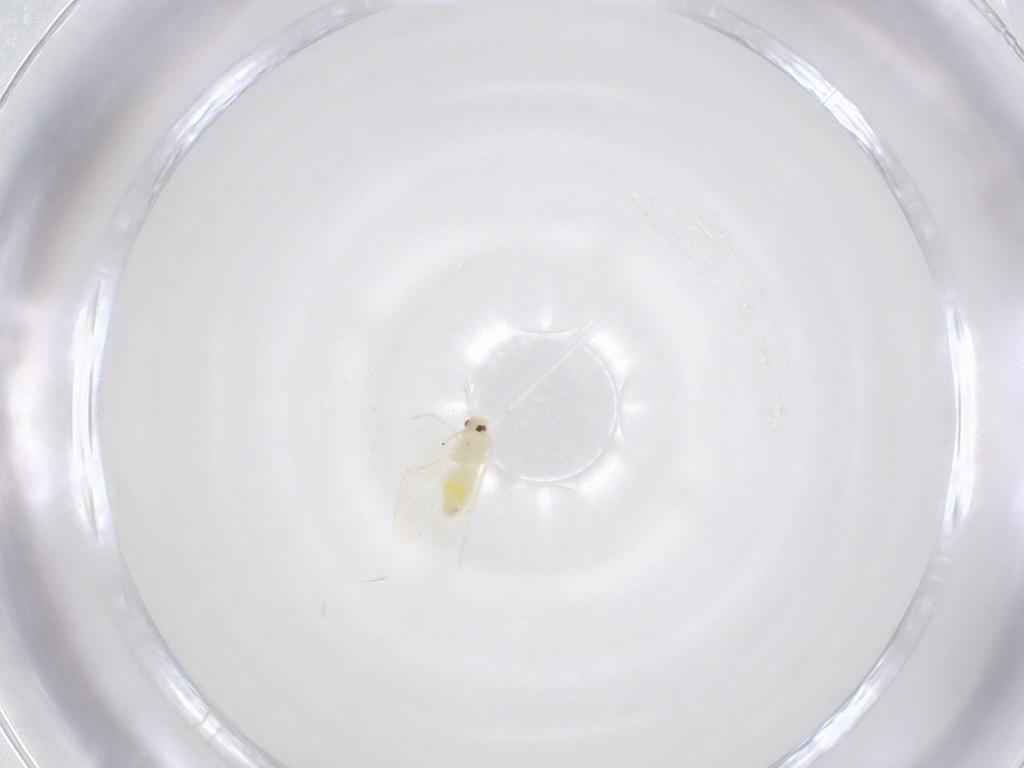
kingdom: Animalia
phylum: Arthropoda
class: Insecta
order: Hemiptera
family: Aleyrodidae
